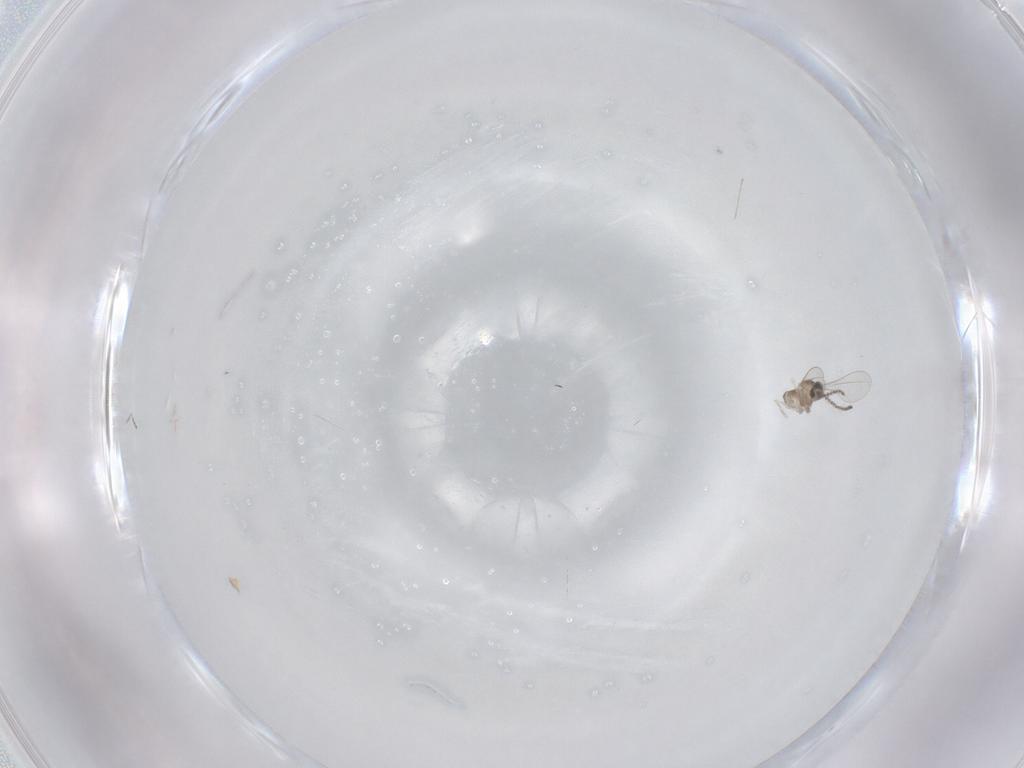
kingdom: Animalia
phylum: Arthropoda
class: Insecta
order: Diptera
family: Cecidomyiidae
